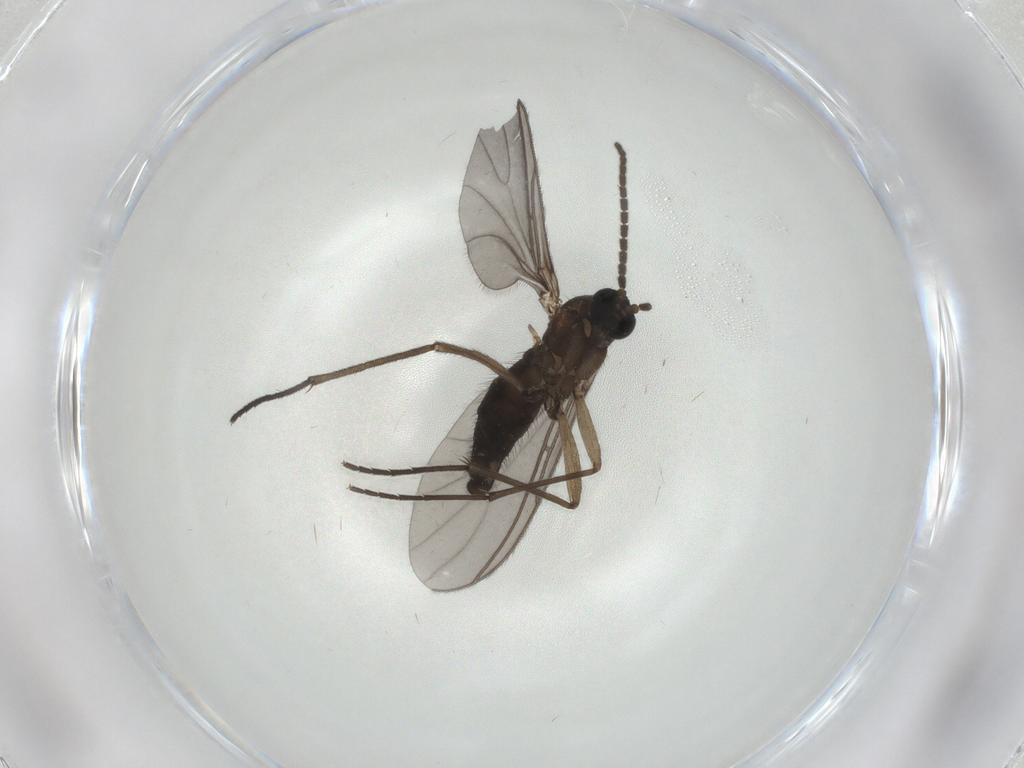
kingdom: Animalia
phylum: Arthropoda
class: Insecta
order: Diptera
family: Sciaridae
